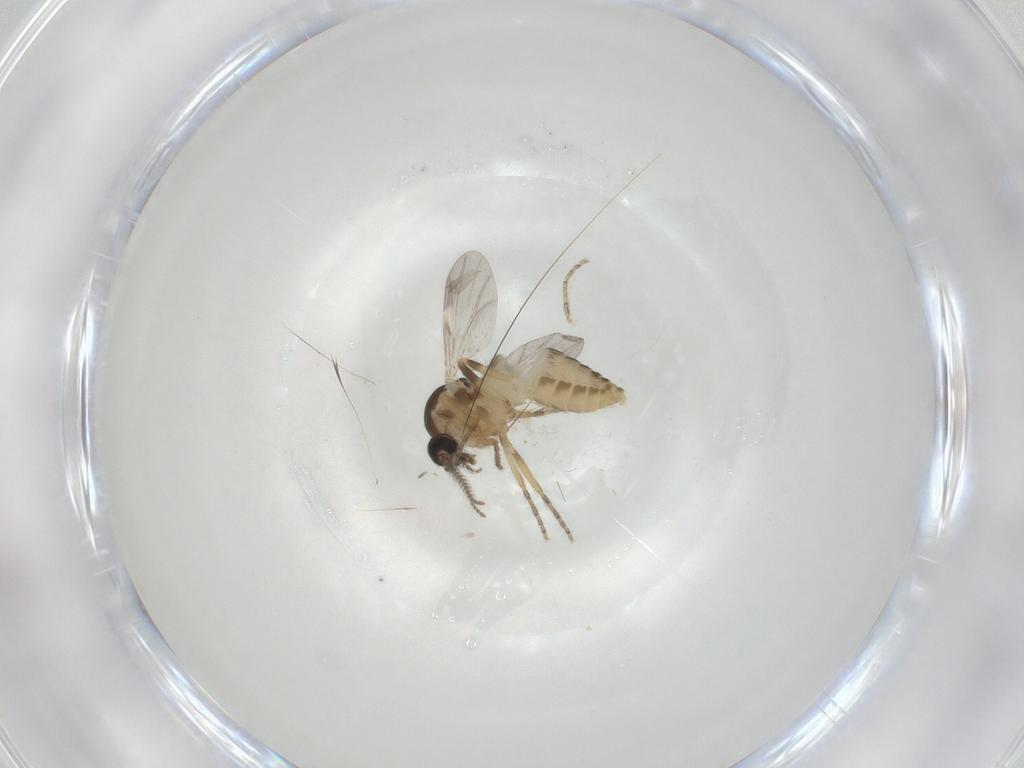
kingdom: Animalia
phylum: Arthropoda
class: Insecta
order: Diptera
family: Ceratopogonidae
